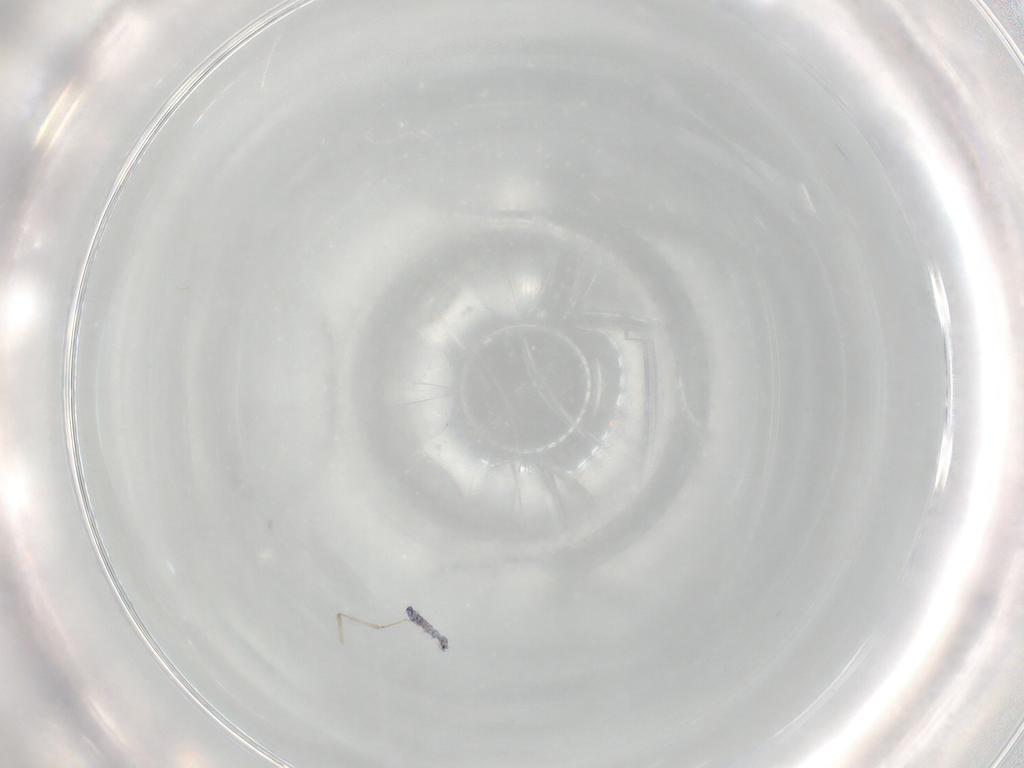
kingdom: Animalia
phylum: Arthropoda
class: Collembola
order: Entomobryomorpha
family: Entomobryidae
